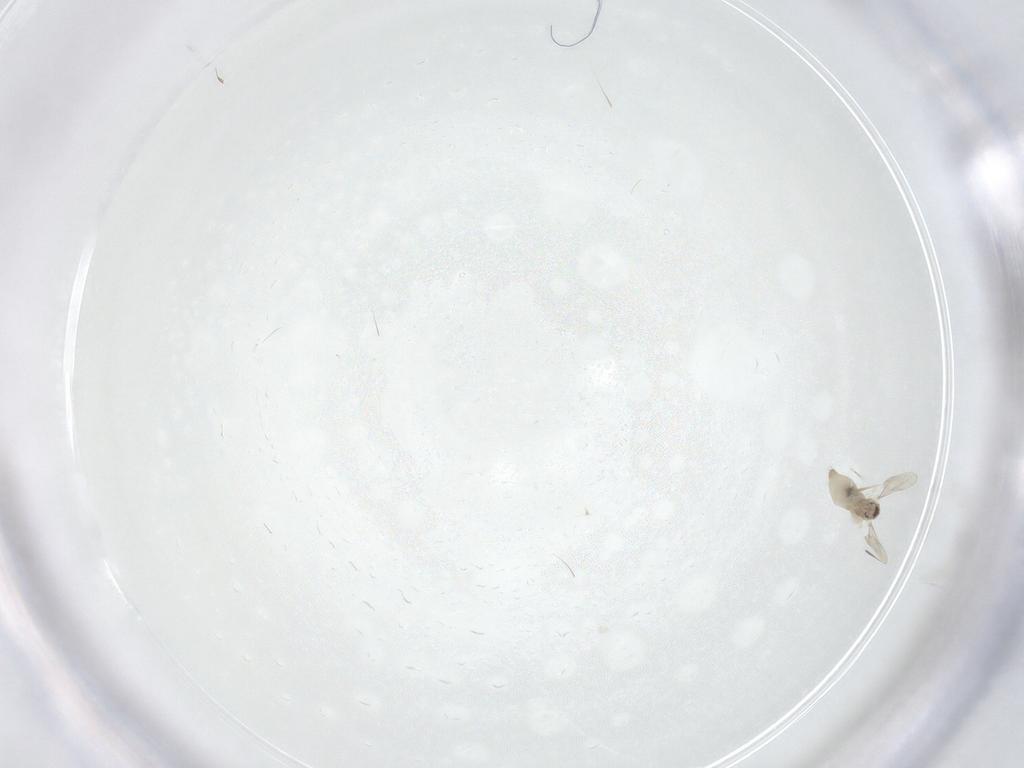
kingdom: Animalia
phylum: Arthropoda
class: Insecta
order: Diptera
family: Cecidomyiidae
